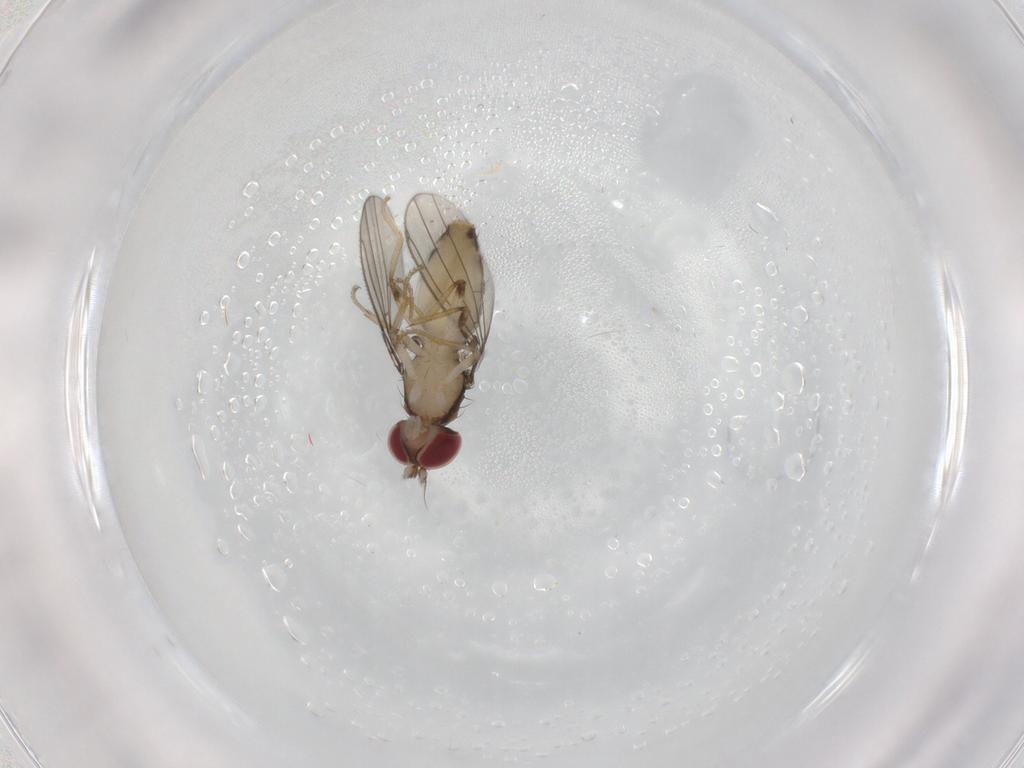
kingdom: Animalia
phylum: Arthropoda
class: Insecta
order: Diptera
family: Anthomyzidae
